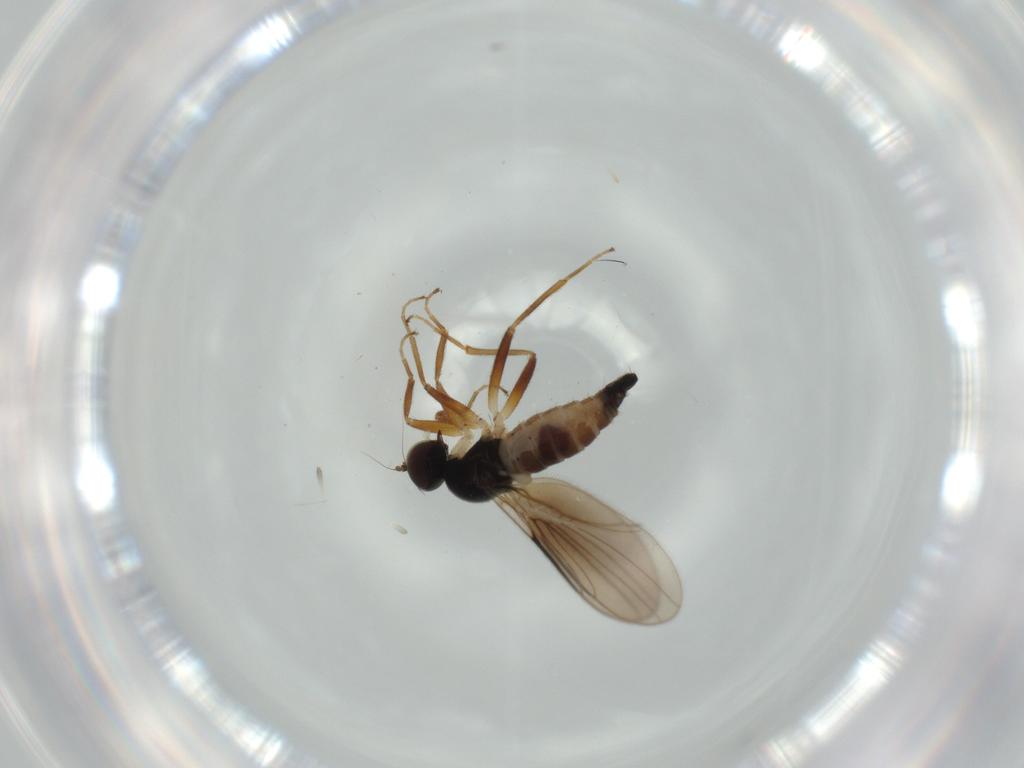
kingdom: Animalia
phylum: Arthropoda
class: Insecta
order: Diptera
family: Hybotidae
